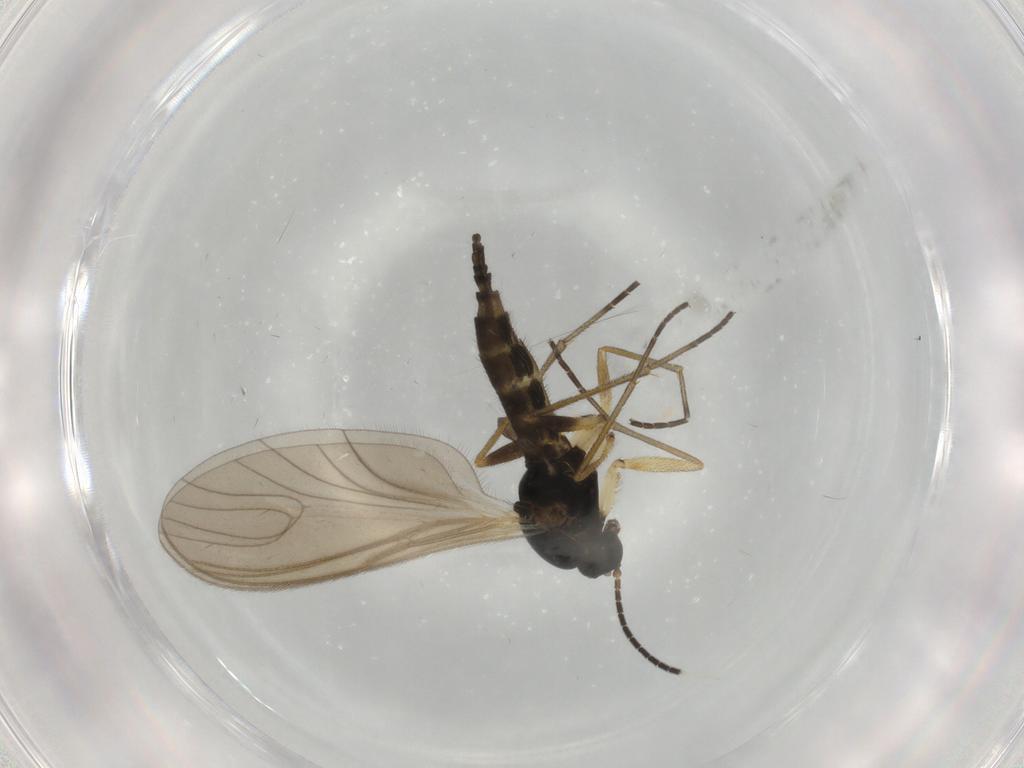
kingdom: Animalia
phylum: Arthropoda
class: Insecta
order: Diptera
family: Sciaridae
